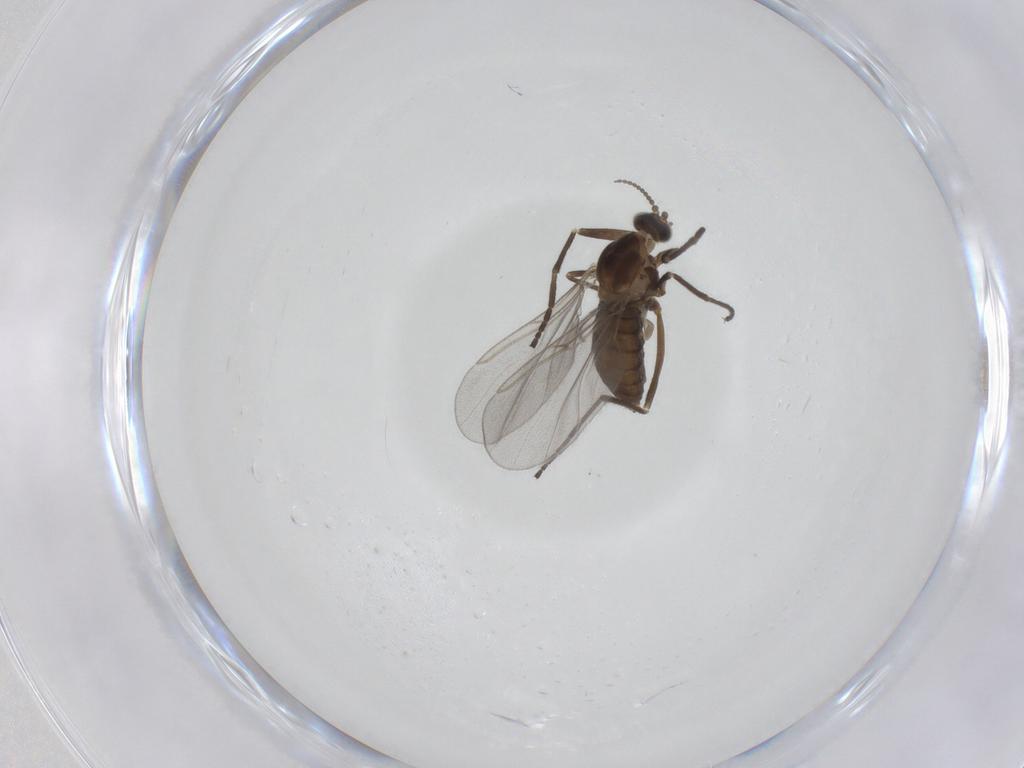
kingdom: Animalia
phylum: Arthropoda
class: Insecta
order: Diptera
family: Cecidomyiidae
